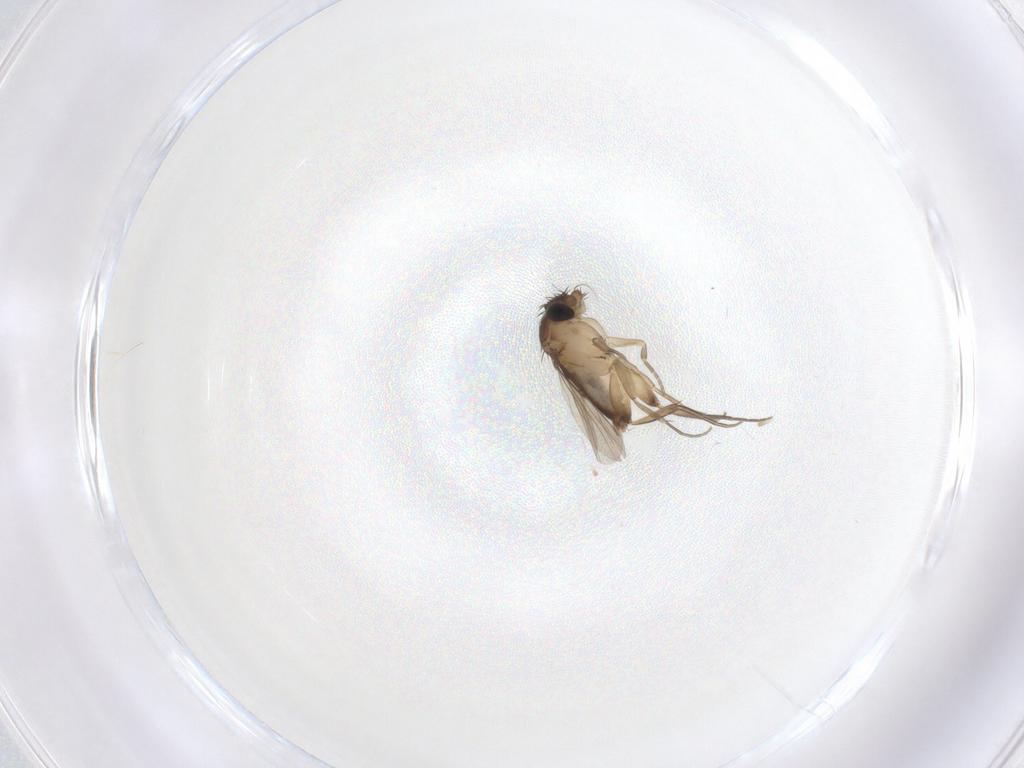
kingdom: Animalia
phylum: Arthropoda
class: Insecta
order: Diptera
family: Phoridae
